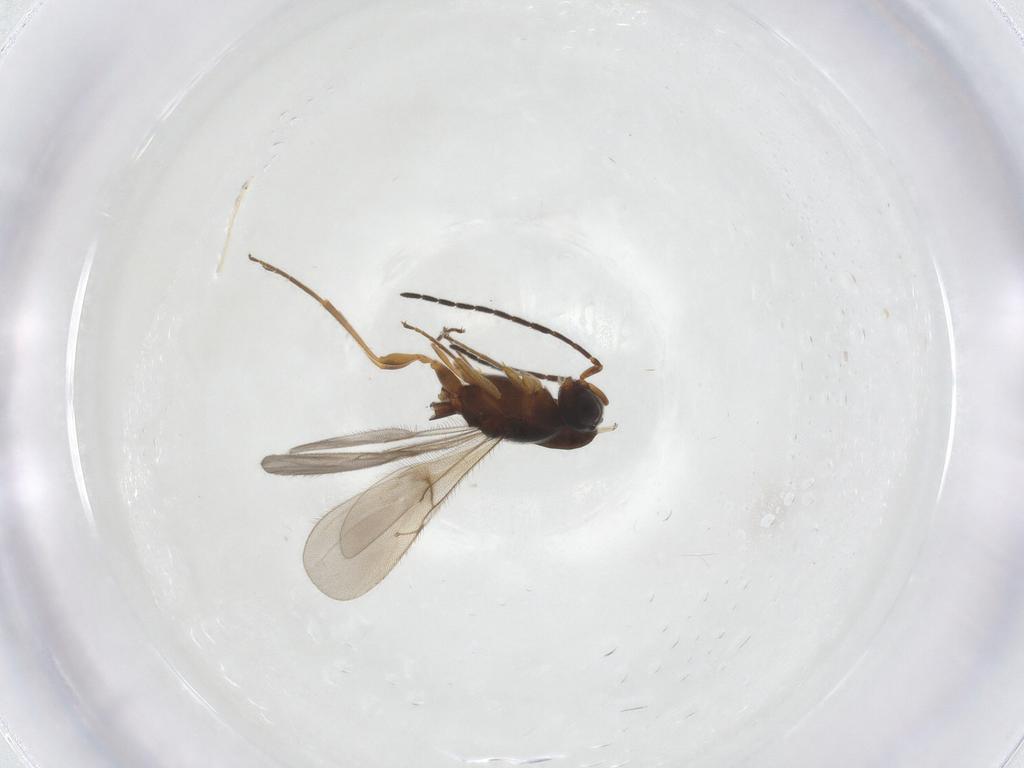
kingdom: Animalia
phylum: Arthropoda
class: Insecta
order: Hymenoptera
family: Scelionidae
